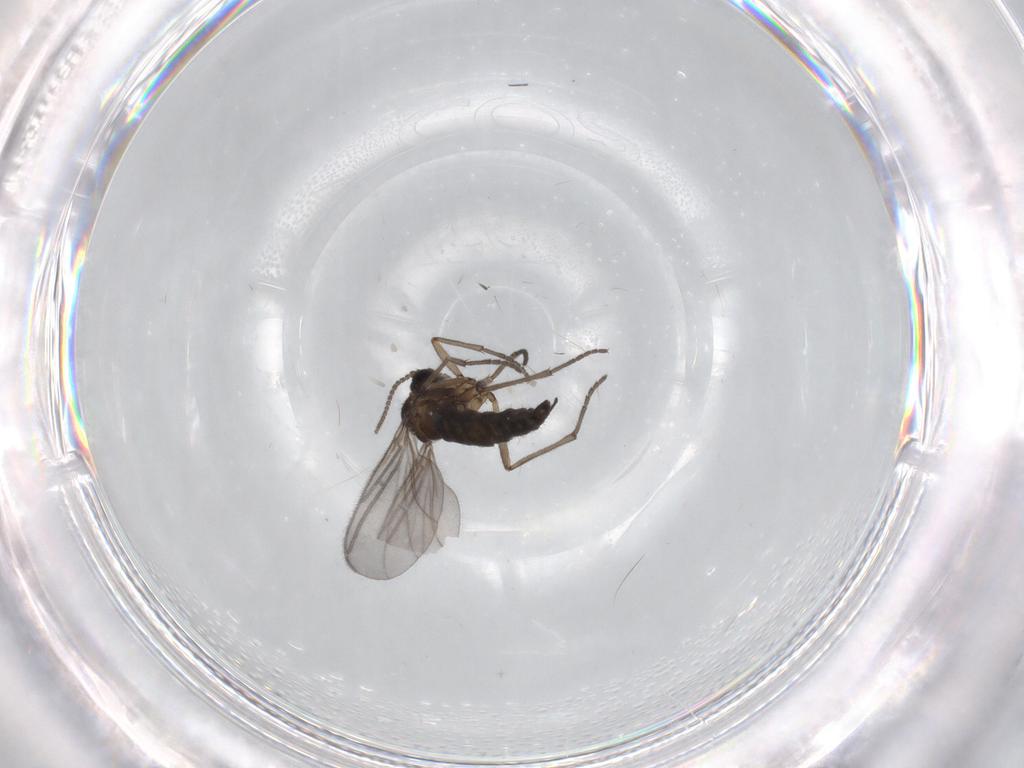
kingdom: Animalia
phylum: Arthropoda
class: Insecta
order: Diptera
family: Sciaridae
